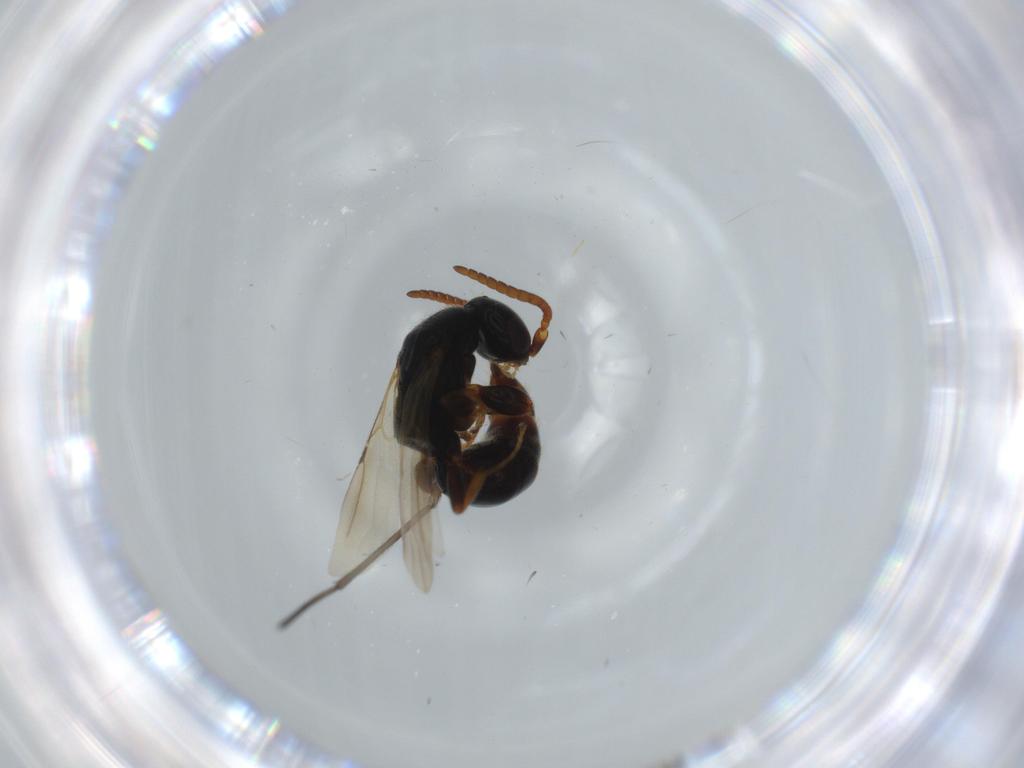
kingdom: Animalia
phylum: Arthropoda
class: Insecta
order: Hymenoptera
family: Bethylidae
